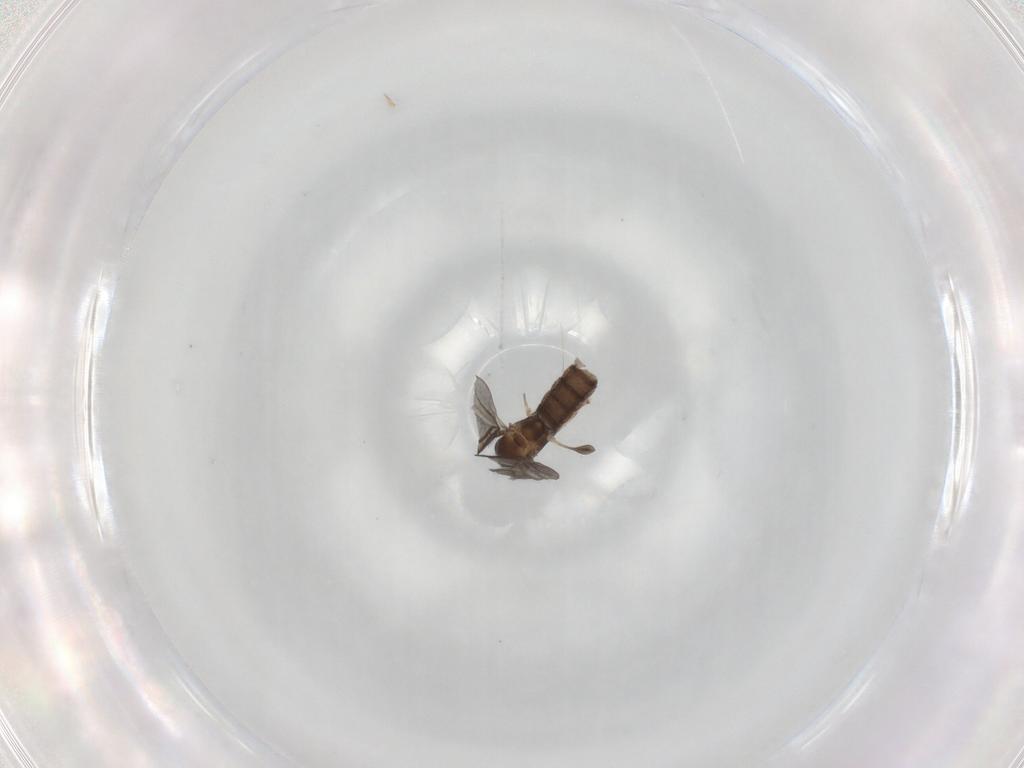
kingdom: Animalia
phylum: Arthropoda
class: Insecta
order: Diptera
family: Sciaridae
